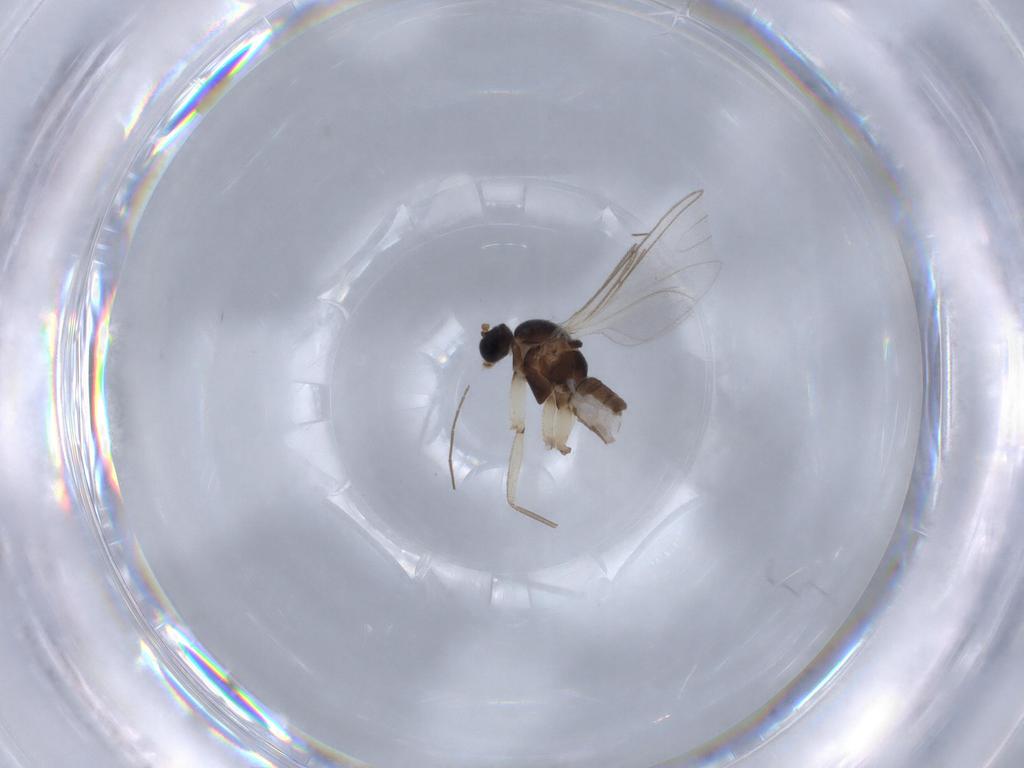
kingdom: Animalia
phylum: Arthropoda
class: Insecta
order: Diptera
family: Sciaridae
